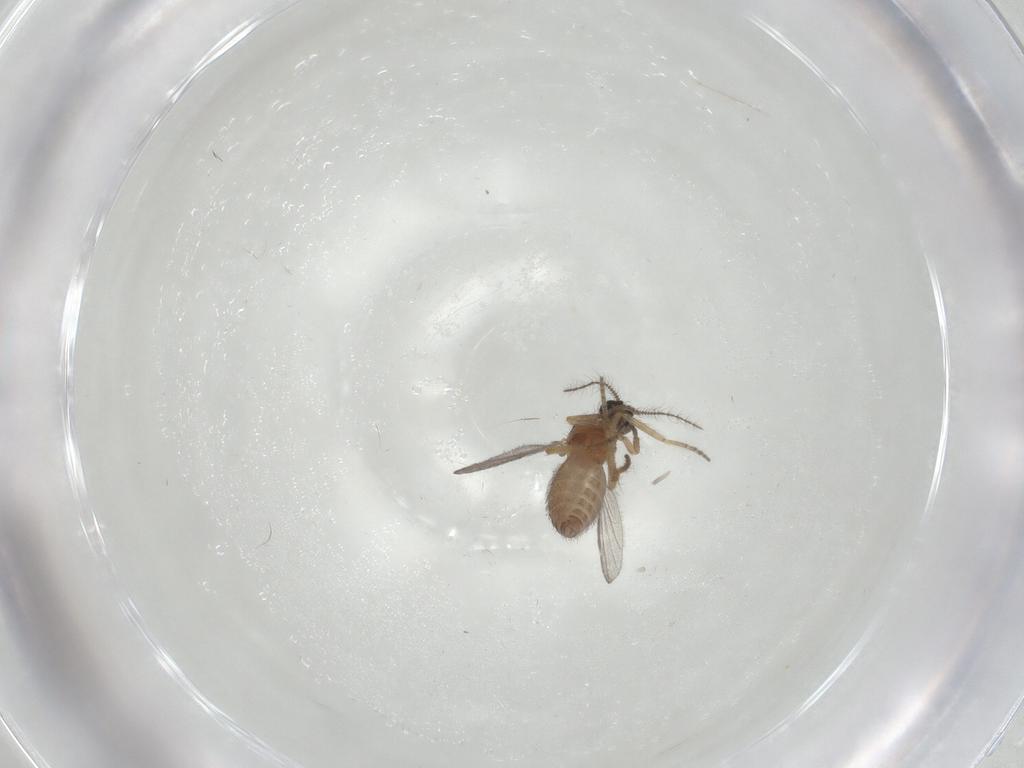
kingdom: Animalia
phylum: Arthropoda
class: Insecta
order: Diptera
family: Ceratopogonidae
